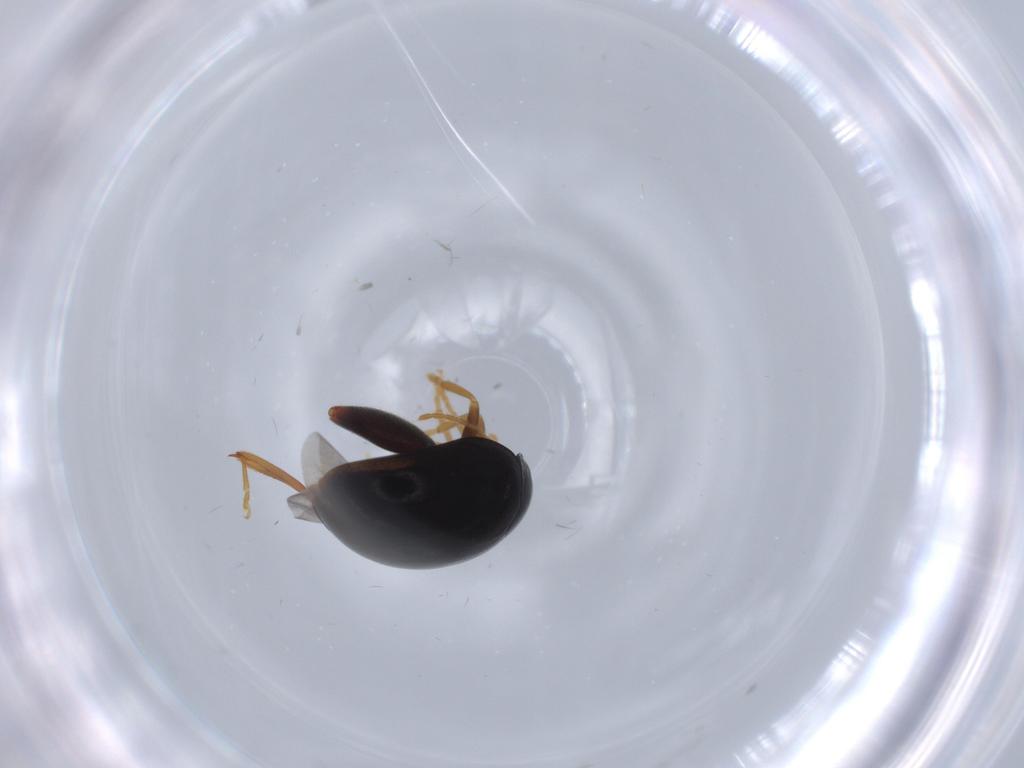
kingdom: Animalia
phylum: Arthropoda
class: Insecta
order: Coleoptera
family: Chrysomelidae
